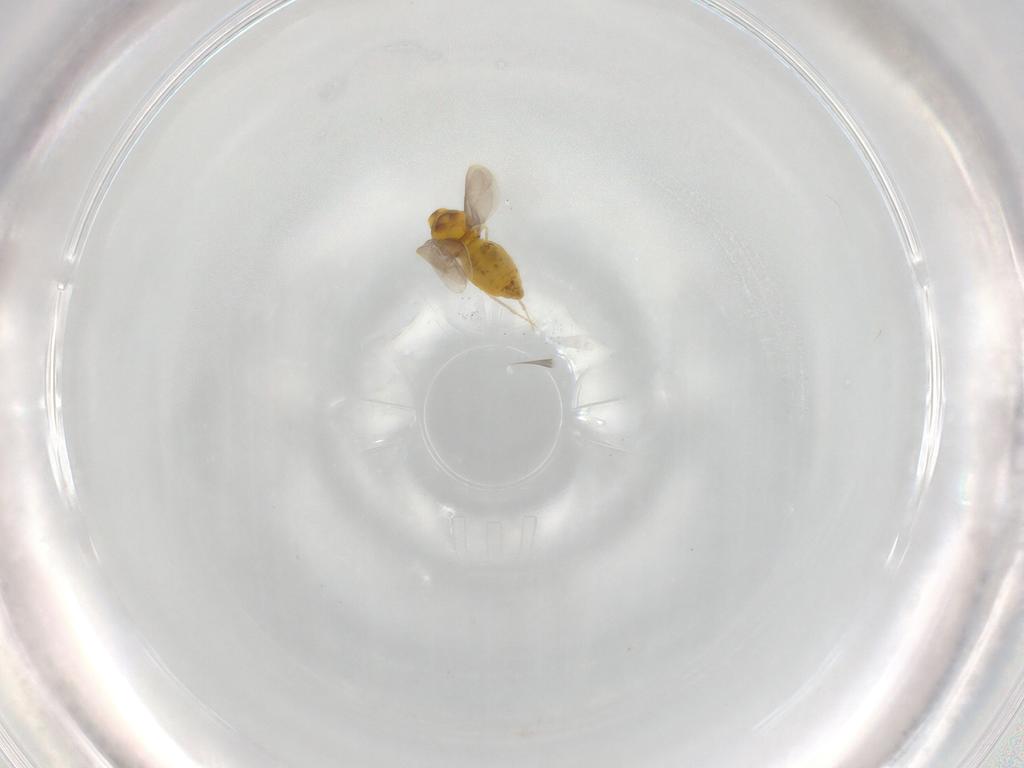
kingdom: Animalia
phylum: Arthropoda
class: Insecta
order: Hemiptera
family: Aleyrodidae
